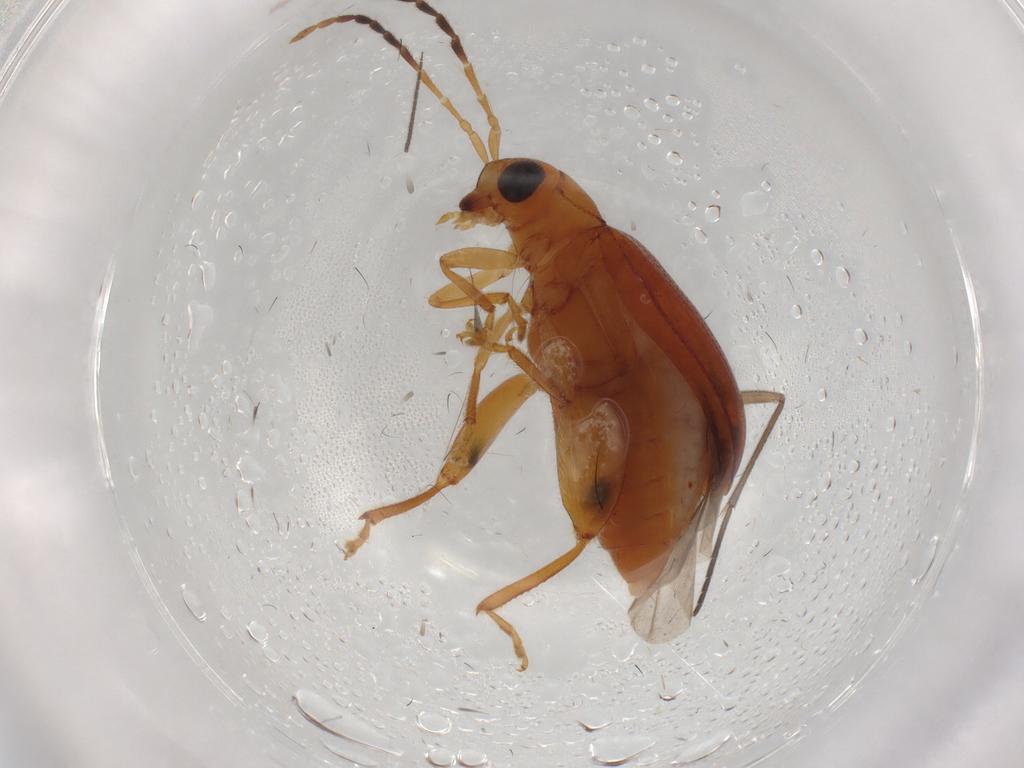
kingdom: Animalia
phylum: Arthropoda
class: Insecta
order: Coleoptera
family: Chrysomelidae
